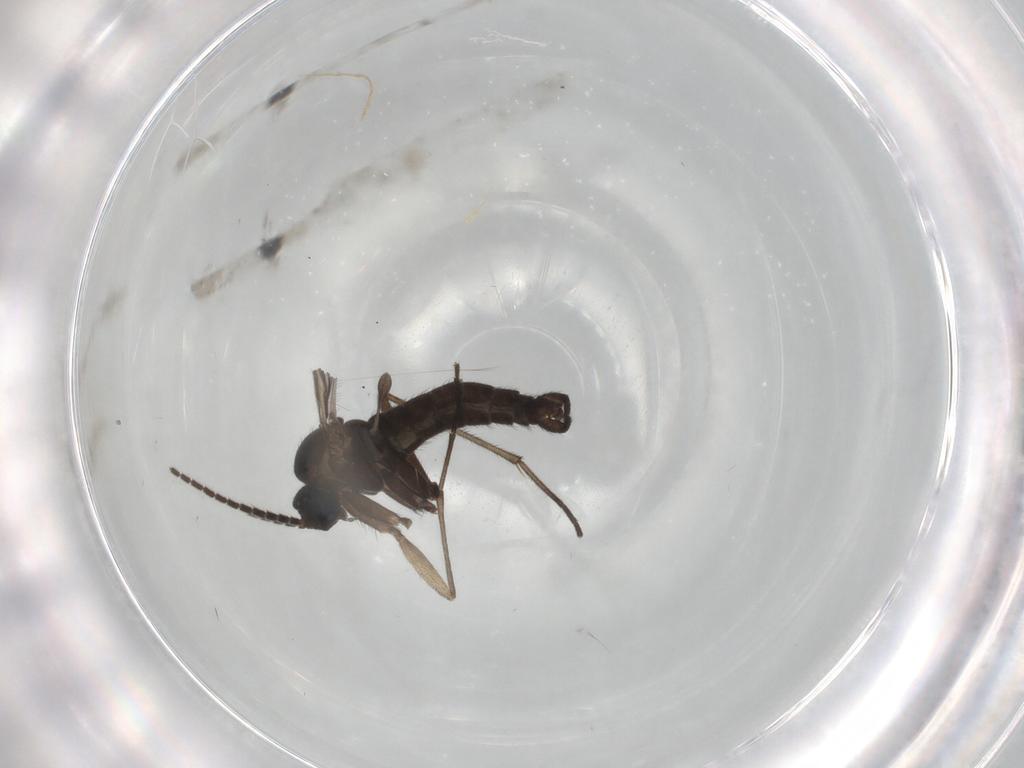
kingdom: Animalia
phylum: Arthropoda
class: Insecta
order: Diptera
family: Sciaridae
